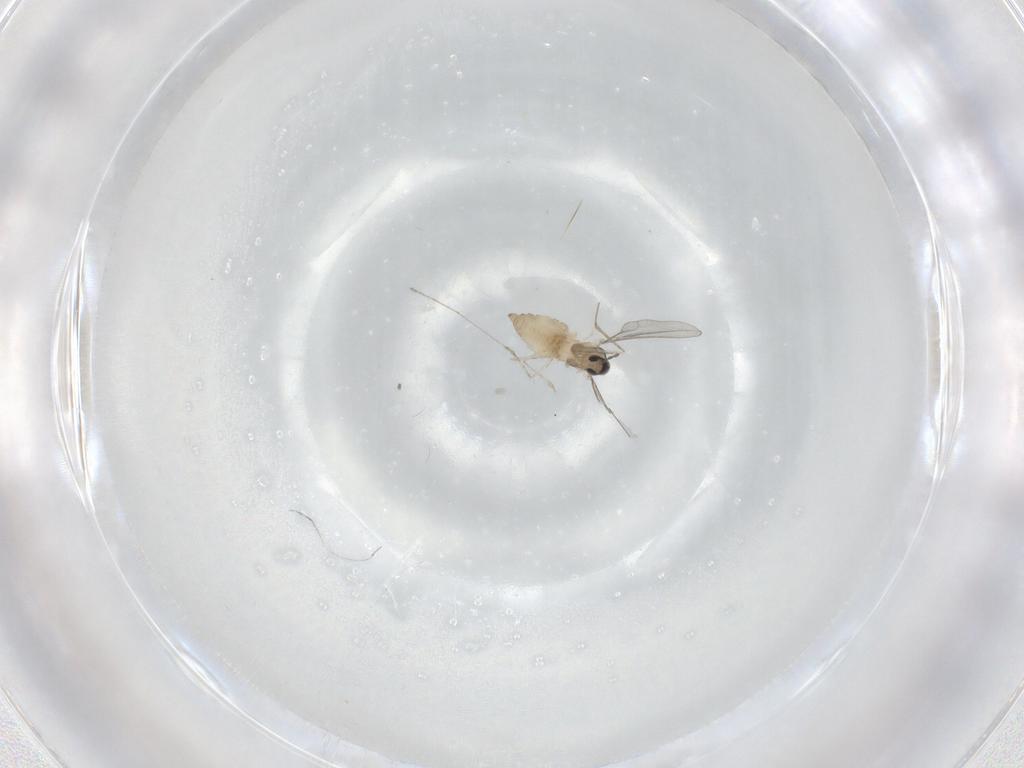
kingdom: Animalia
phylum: Arthropoda
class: Insecta
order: Diptera
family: Cecidomyiidae
